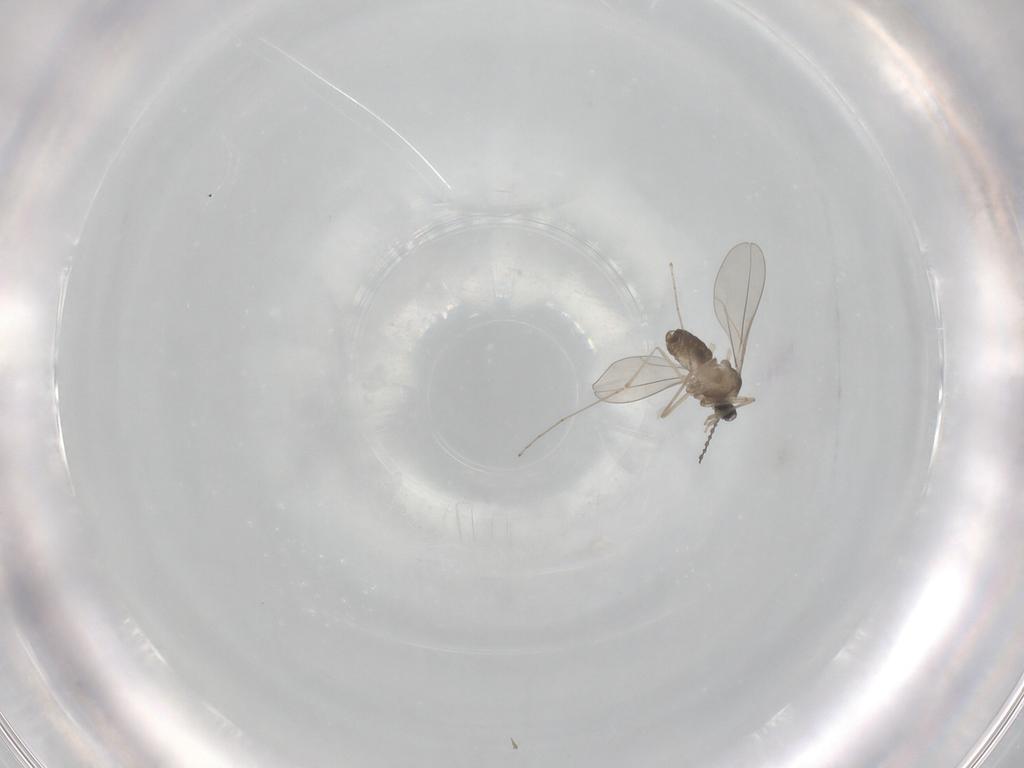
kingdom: Animalia
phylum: Arthropoda
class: Insecta
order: Diptera
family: Cecidomyiidae
